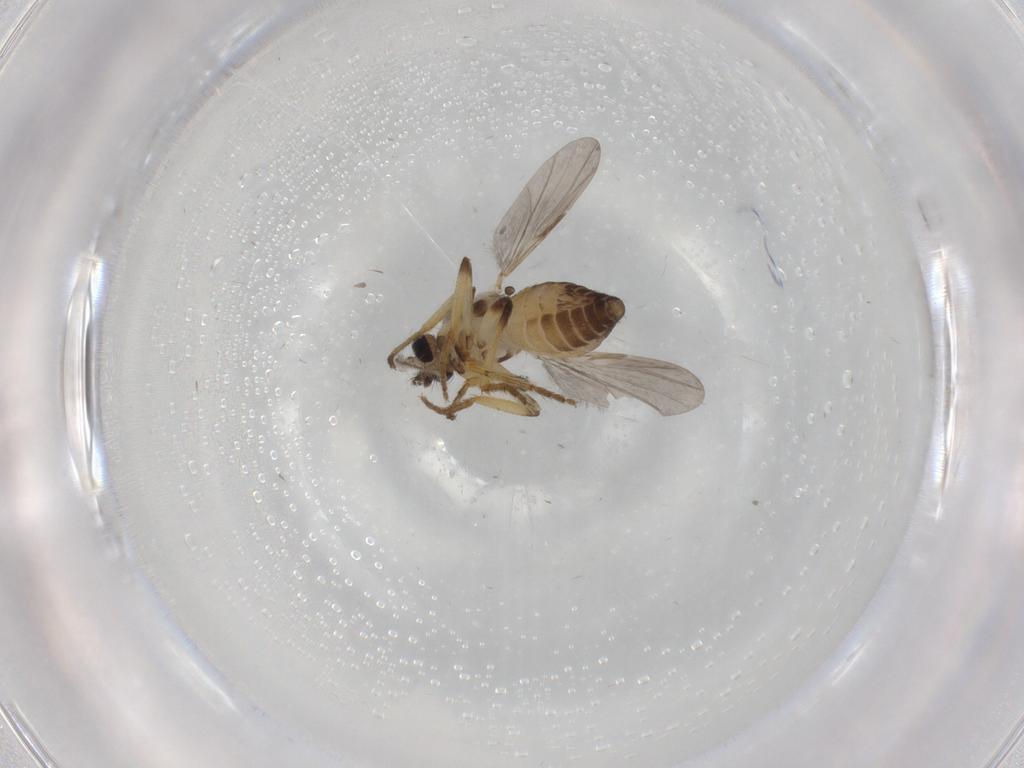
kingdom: Animalia
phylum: Arthropoda
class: Insecta
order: Diptera
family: Ceratopogonidae
